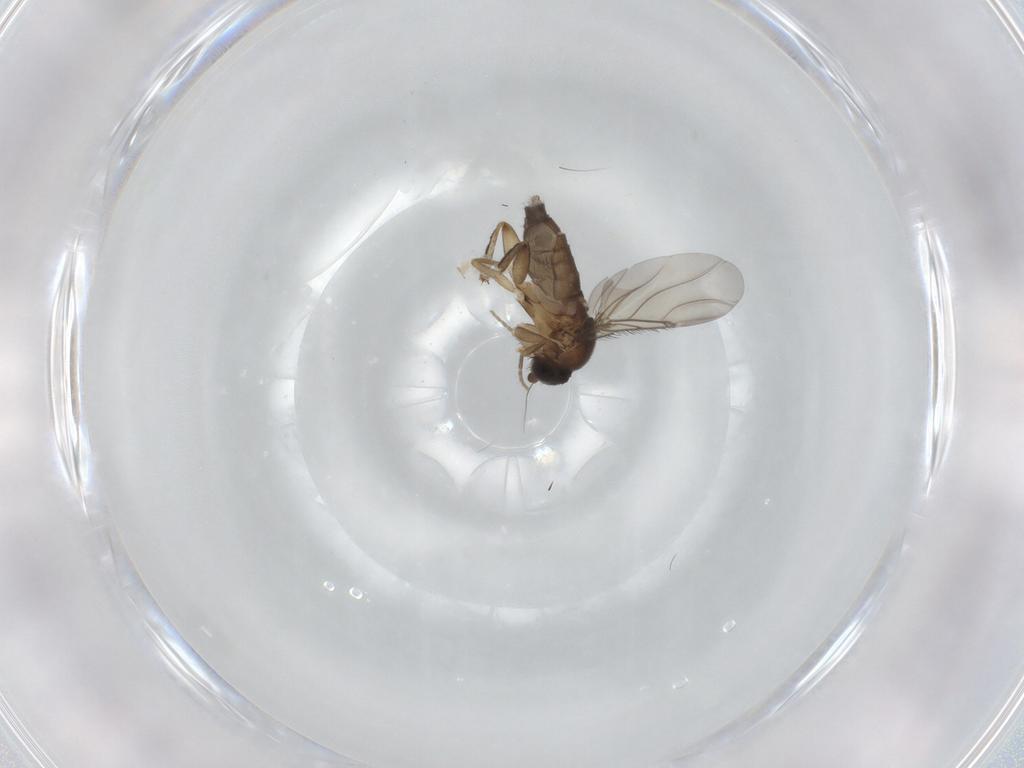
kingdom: Animalia
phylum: Arthropoda
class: Insecta
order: Diptera
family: Phoridae
